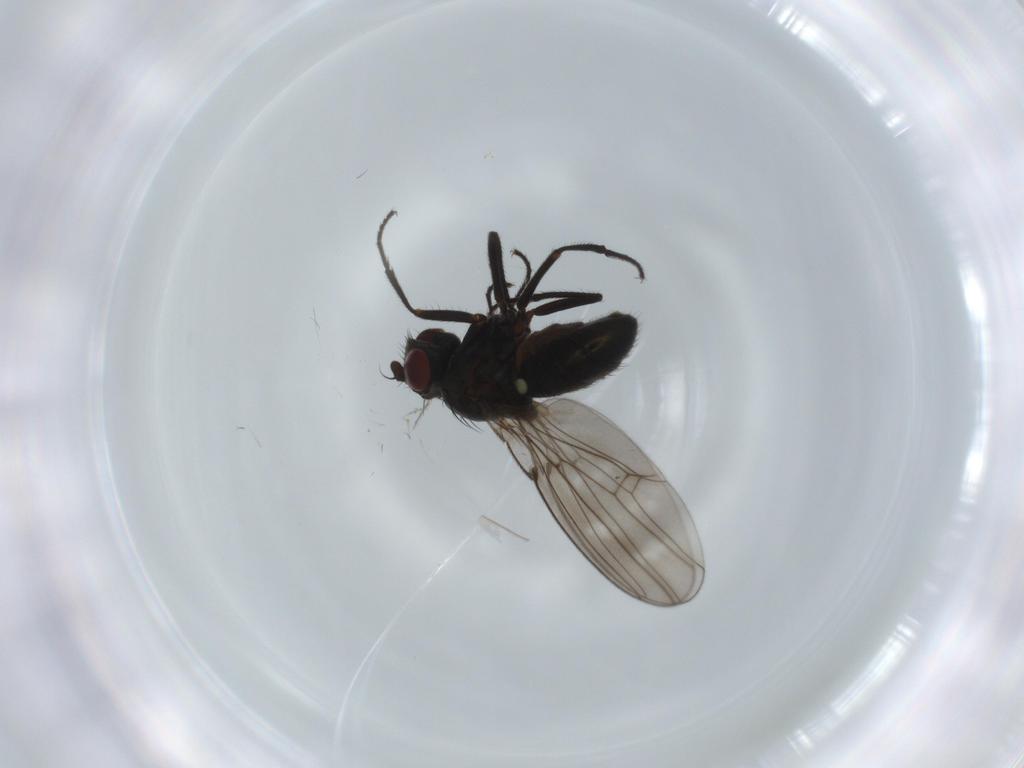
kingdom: Animalia
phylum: Arthropoda
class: Insecta
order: Diptera
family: Ephydridae
